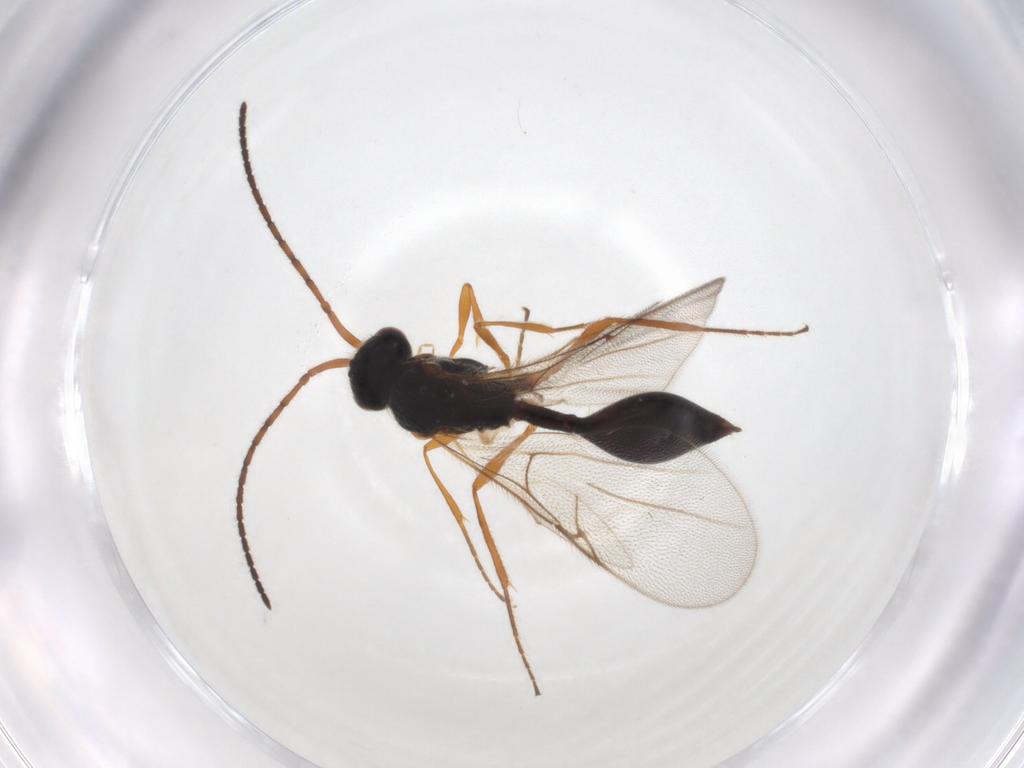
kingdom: Animalia
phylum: Arthropoda
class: Insecta
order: Hymenoptera
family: Diapriidae
